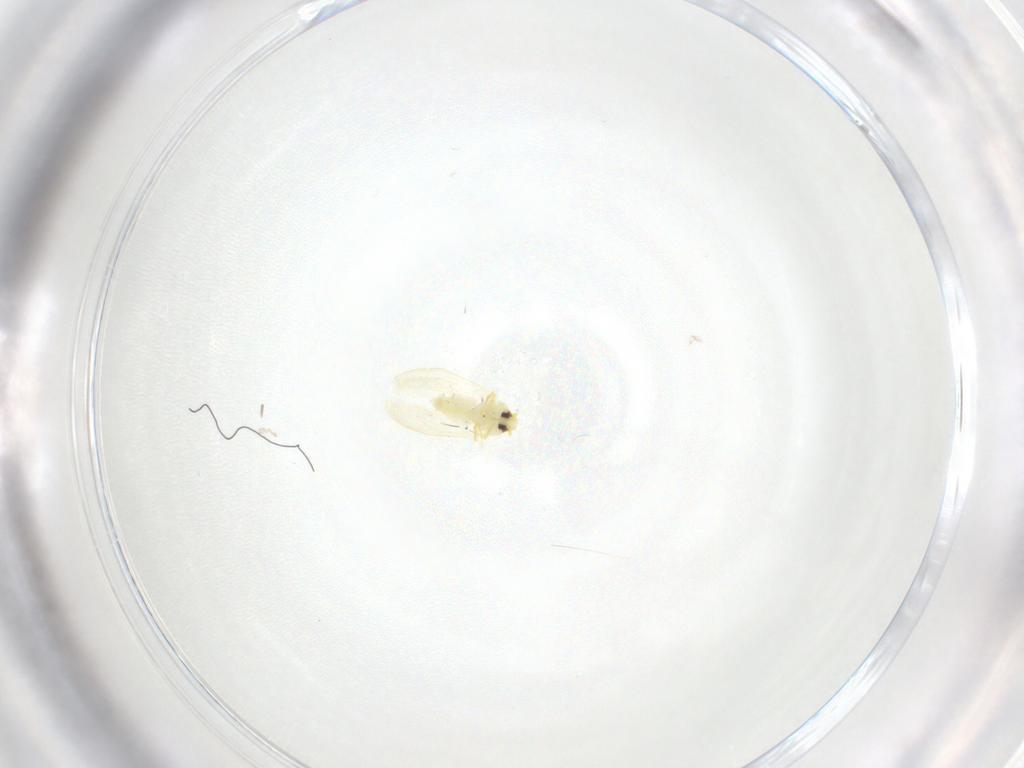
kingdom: Animalia
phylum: Arthropoda
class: Insecta
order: Hemiptera
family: Aleyrodidae
